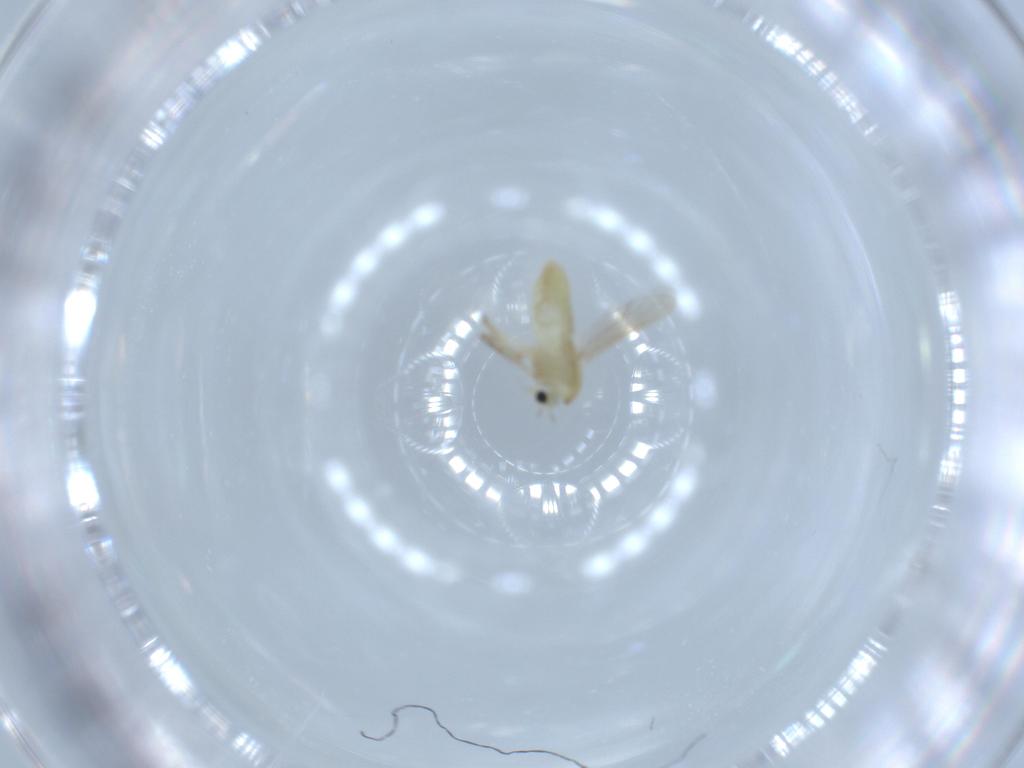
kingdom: Animalia
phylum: Arthropoda
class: Insecta
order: Diptera
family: Chironomidae
